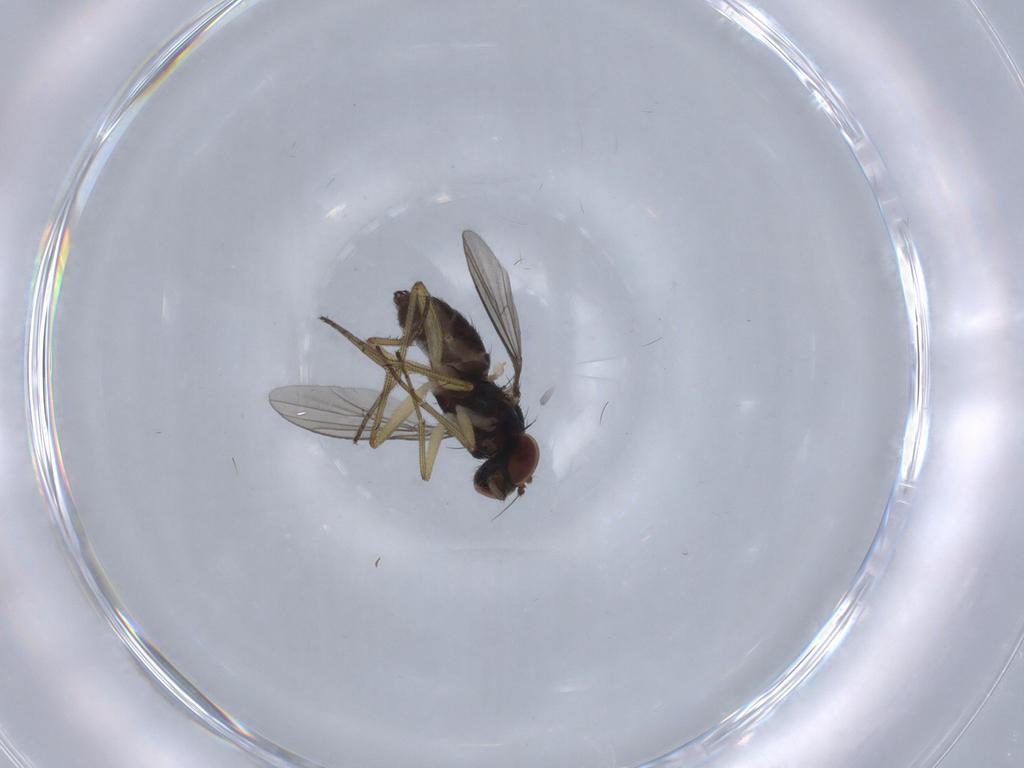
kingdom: Animalia
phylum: Arthropoda
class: Insecta
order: Diptera
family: Dolichopodidae
